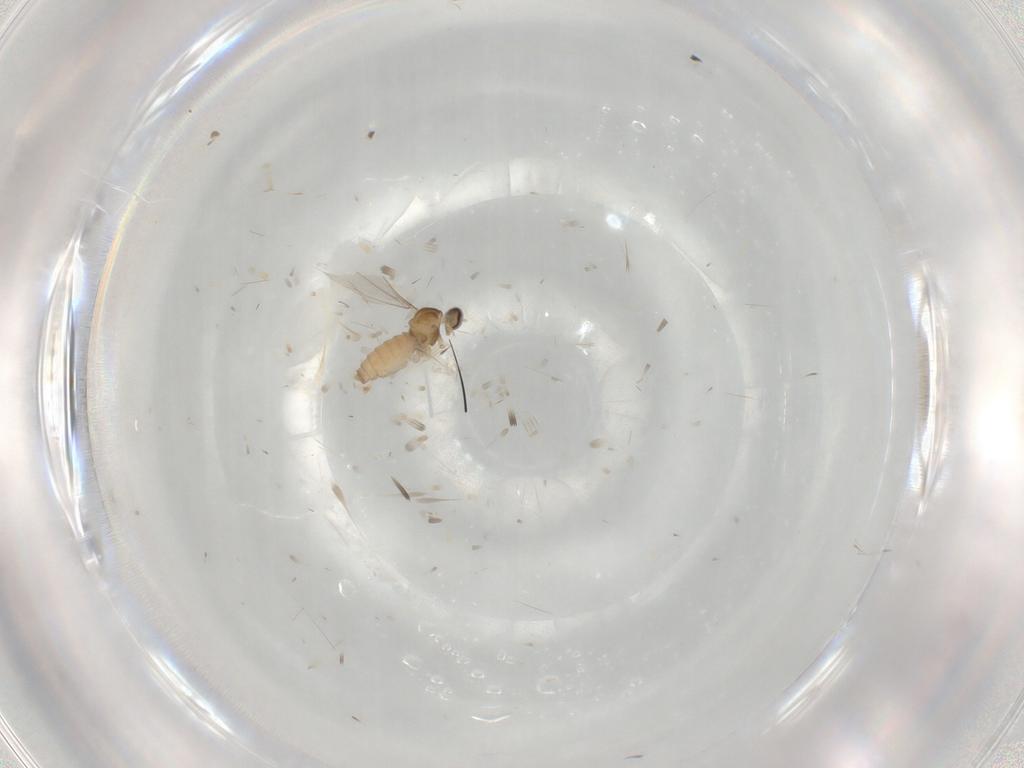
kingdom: Animalia
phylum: Arthropoda
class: Insecta
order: Diptera
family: Cecidomyiidae
